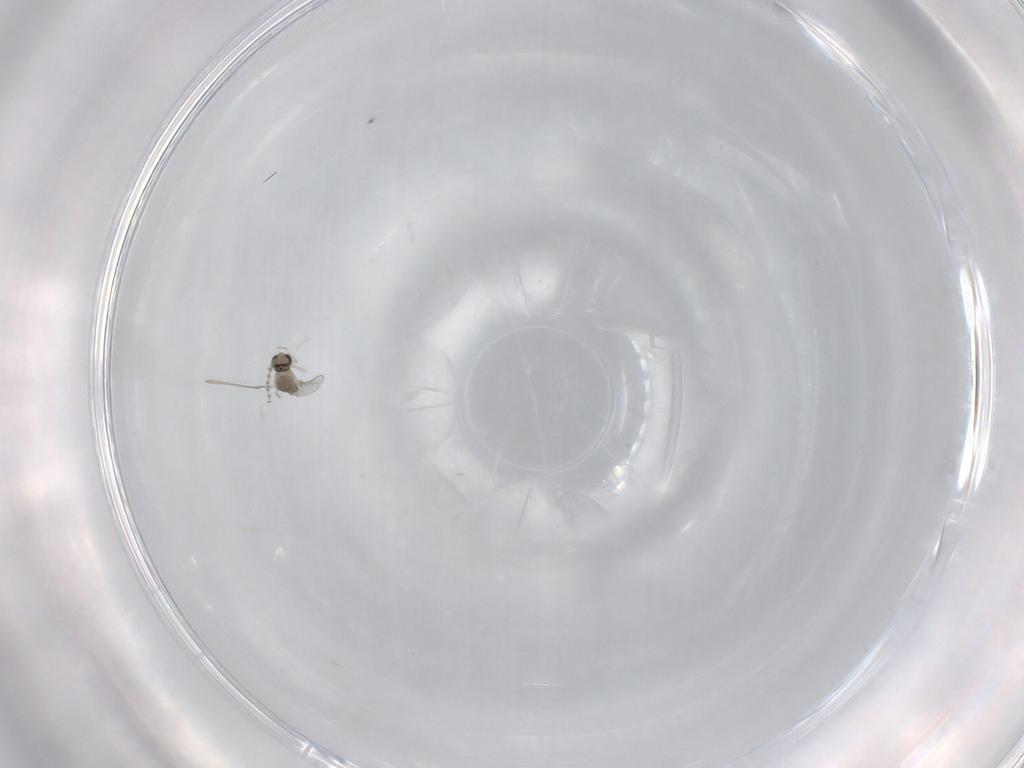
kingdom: Animalia
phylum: Arthropoda
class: Insecta
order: Diptera
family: Cecidomyiidae
